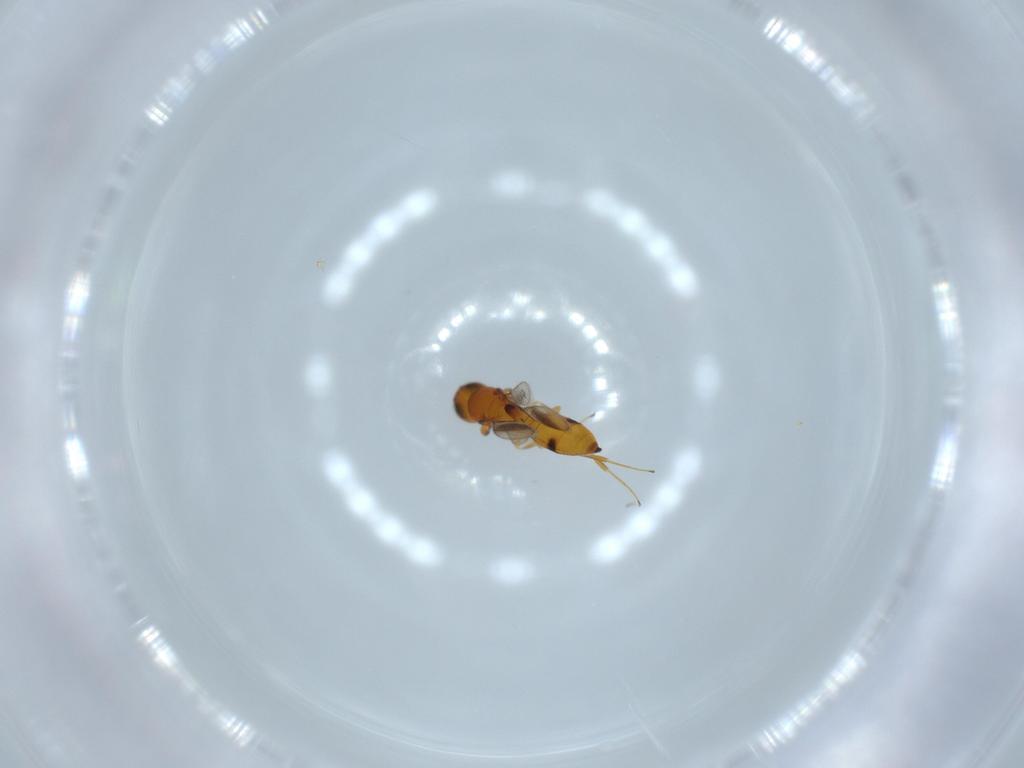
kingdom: Animalia
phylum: Arthropoda
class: Insecta
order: Hymenoptera
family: Scelionidae
